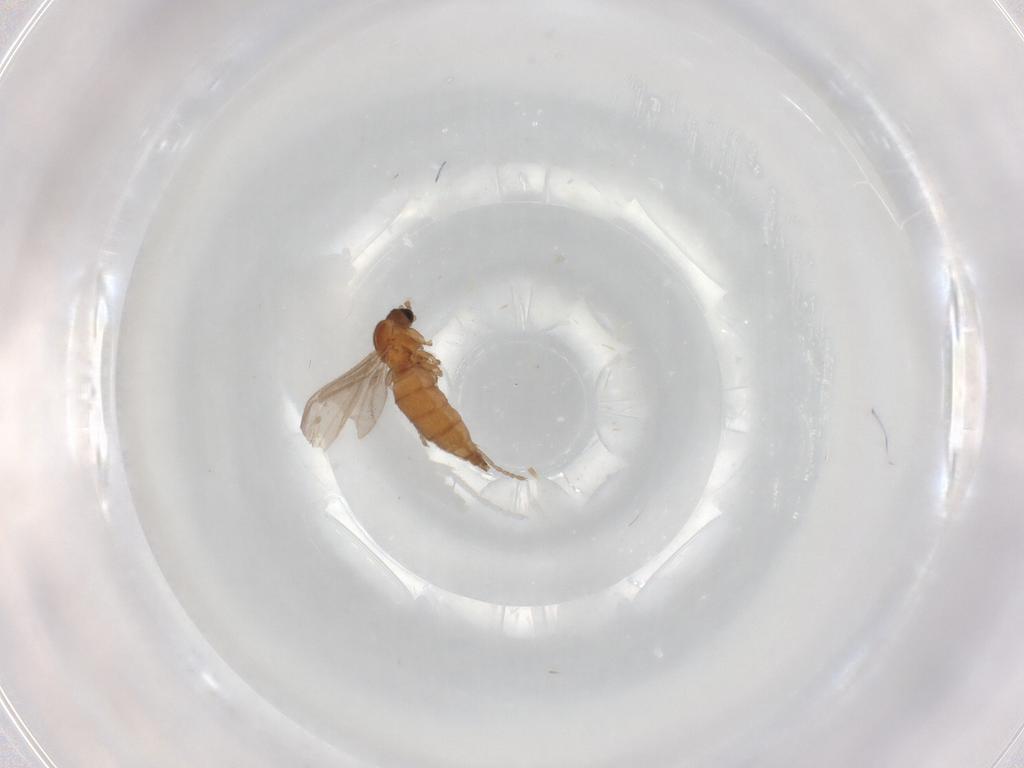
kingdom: Animalia
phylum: Arthropoda
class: Insecta
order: Diptera
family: Sciaridae
